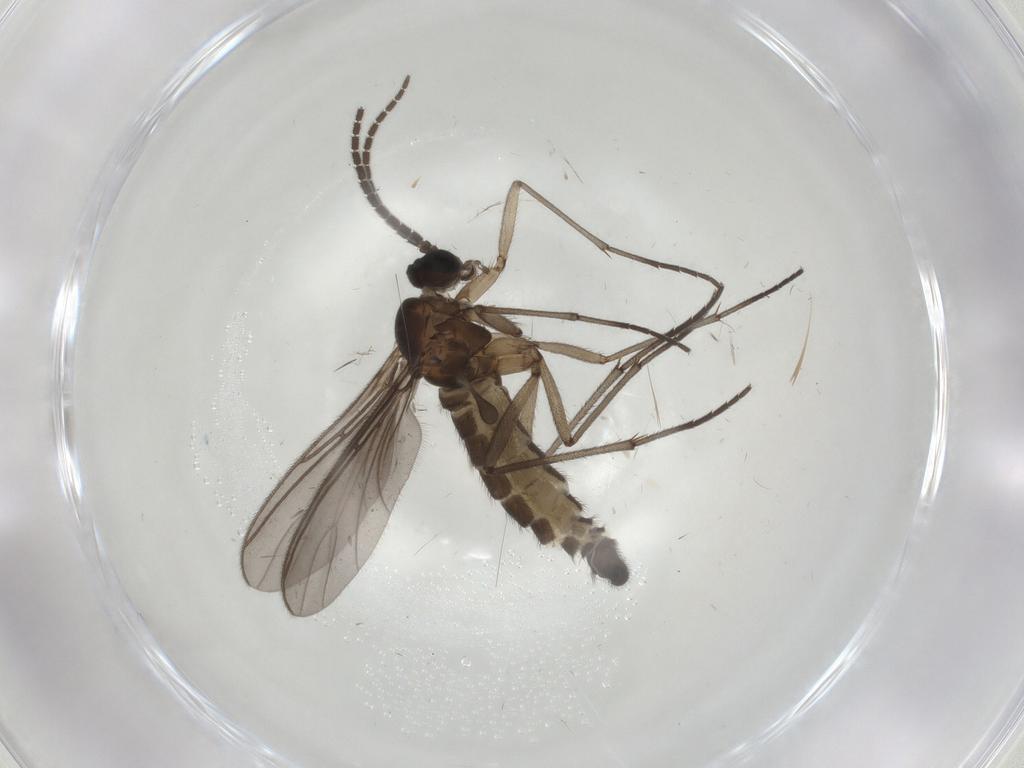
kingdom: Animalia
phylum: Arthropoda
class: Insecta
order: Diptera
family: Sciaridae
